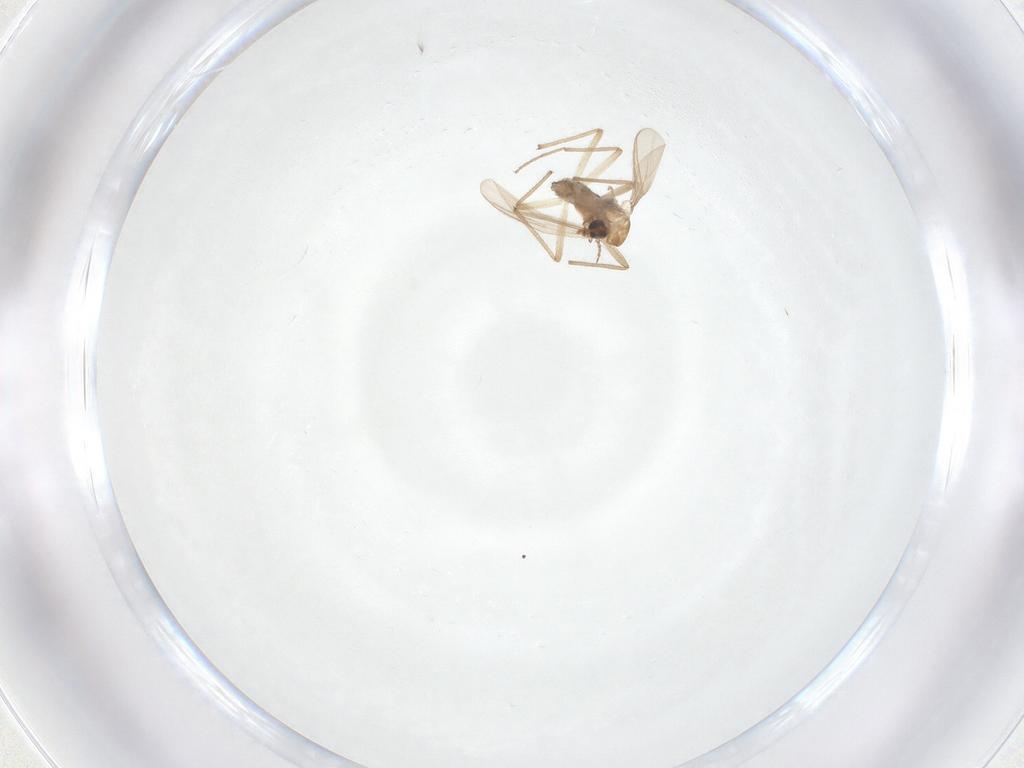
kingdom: Animalia
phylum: Arthropoda
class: Insecta
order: Diptera
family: Chironomidae
